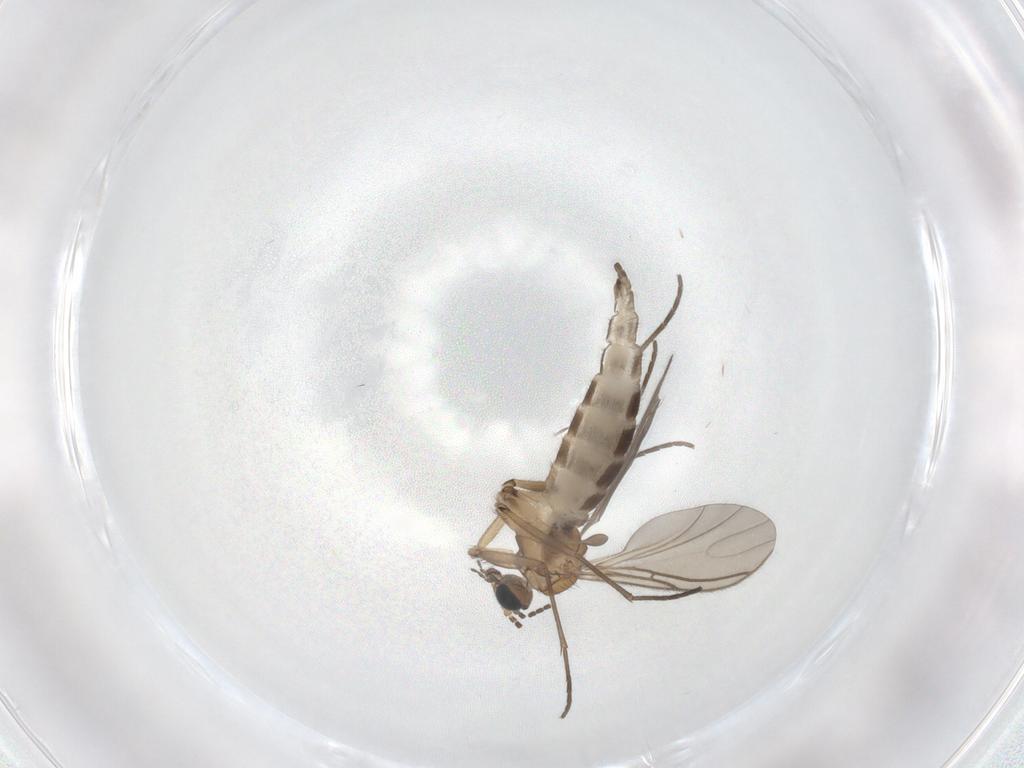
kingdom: Animalia
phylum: Arthropoda
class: Insecta
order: Diptera
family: Sciaridae
